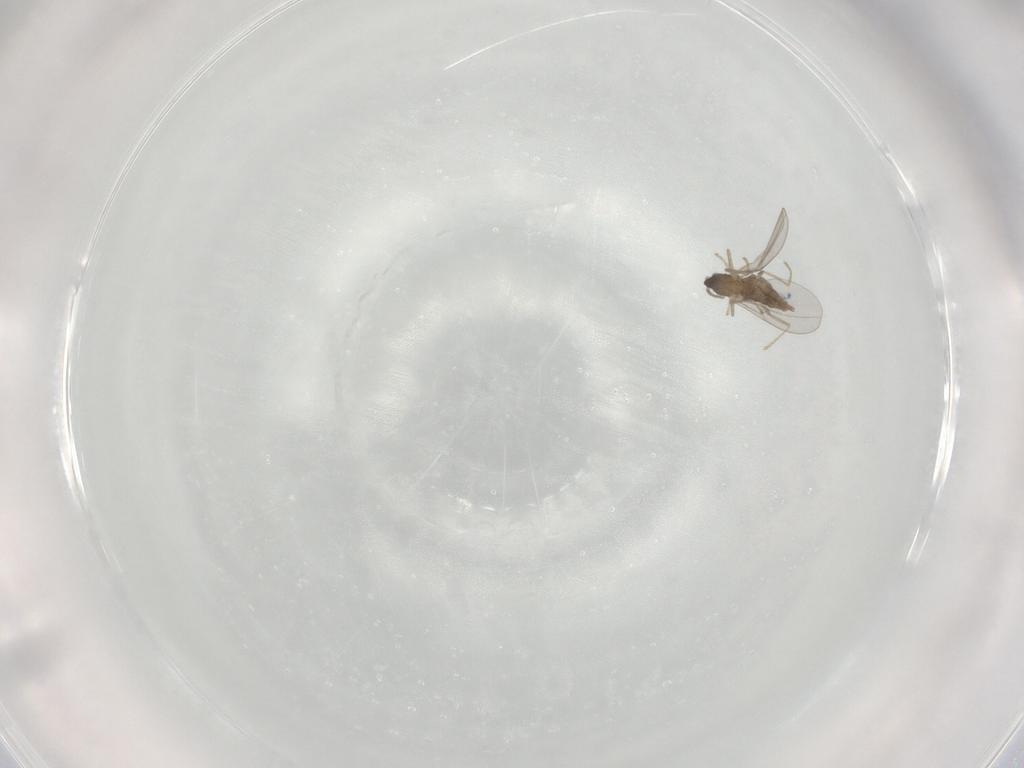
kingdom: Animalia
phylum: Arthropoda
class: Insecta
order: Diptera
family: Cecidomyiidae
